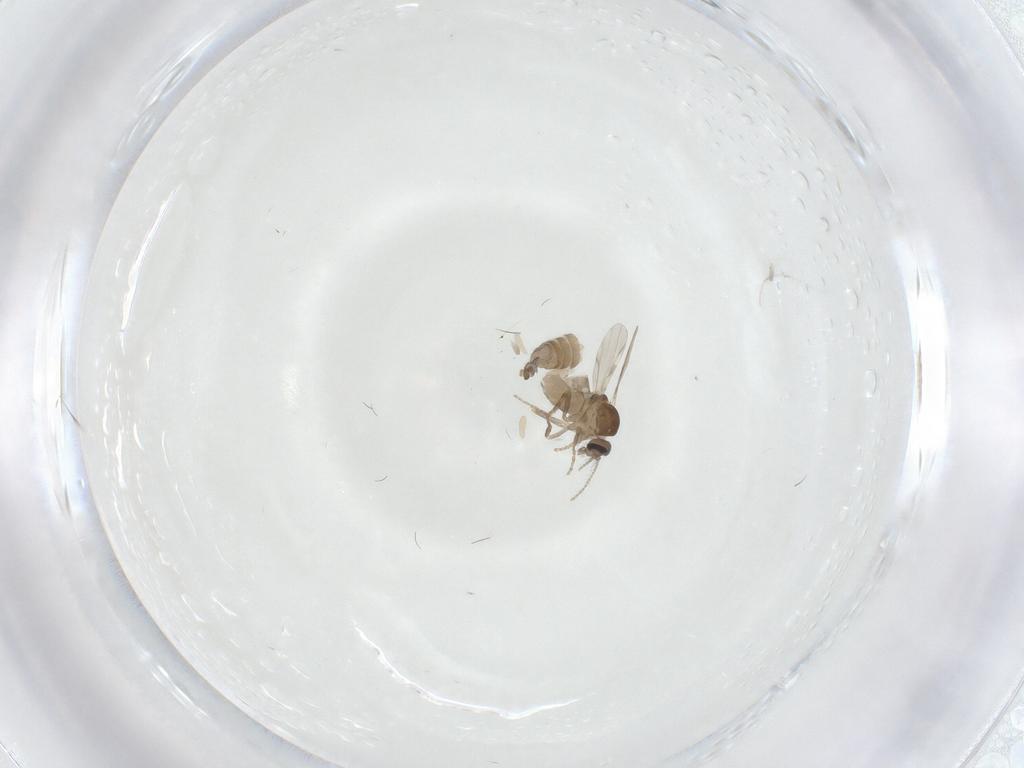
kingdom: Animalia
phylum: Arthropoda
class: Insecta
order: Diptera
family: Ceratopogonidae
